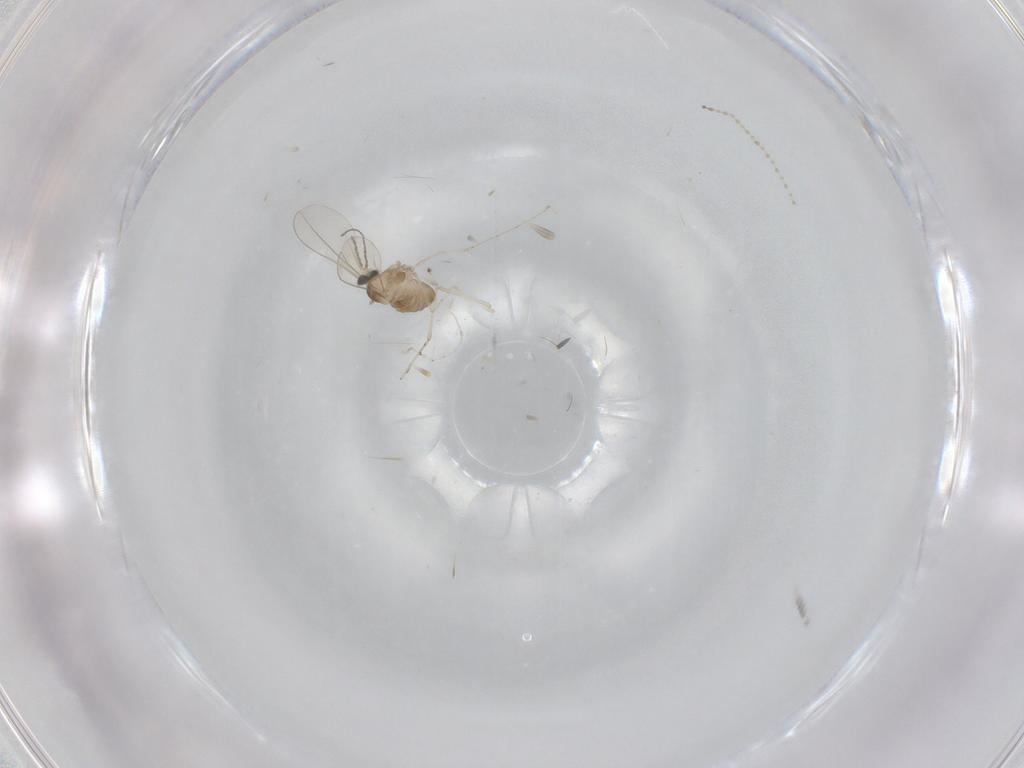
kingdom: Animalia
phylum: Arthropoda
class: Insecta
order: Diptera
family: Cecidomyiidae
